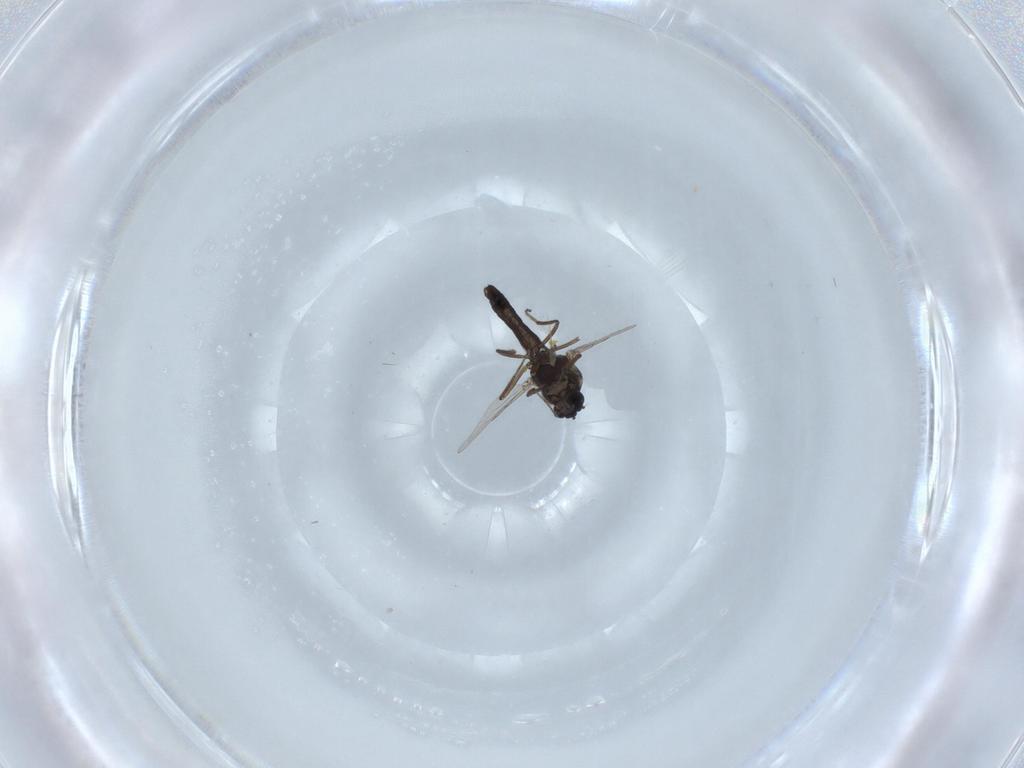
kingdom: Animalia
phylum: Arthropoda
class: Insecta
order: Diptera
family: Ceratopogonidae
